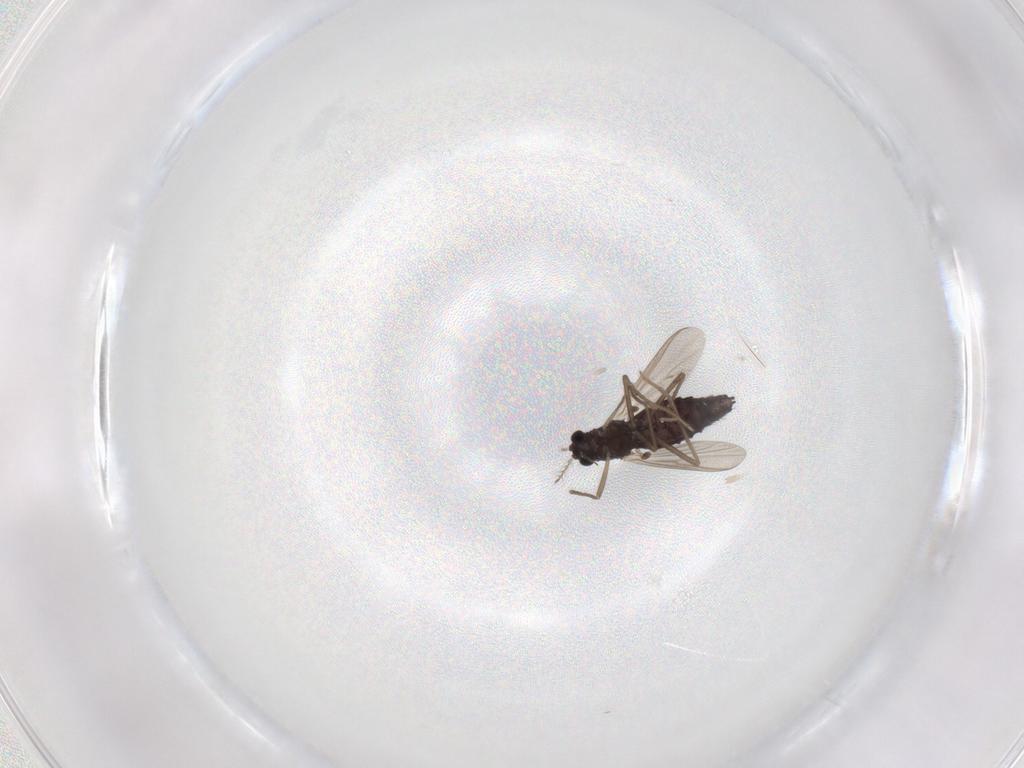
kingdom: Animalia
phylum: Arthropoda
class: Insecta
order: Diptera
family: Chironomidae
